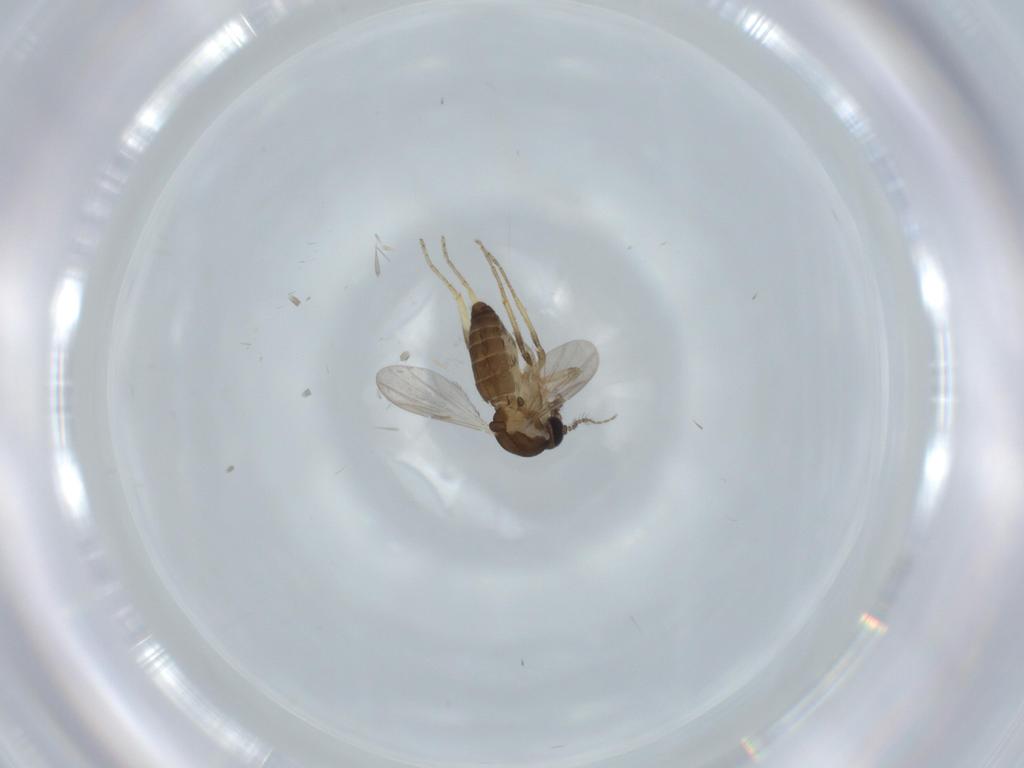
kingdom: Animalia
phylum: Arthropoda
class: Insecta
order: Diptera
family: Ceratopogonidae
